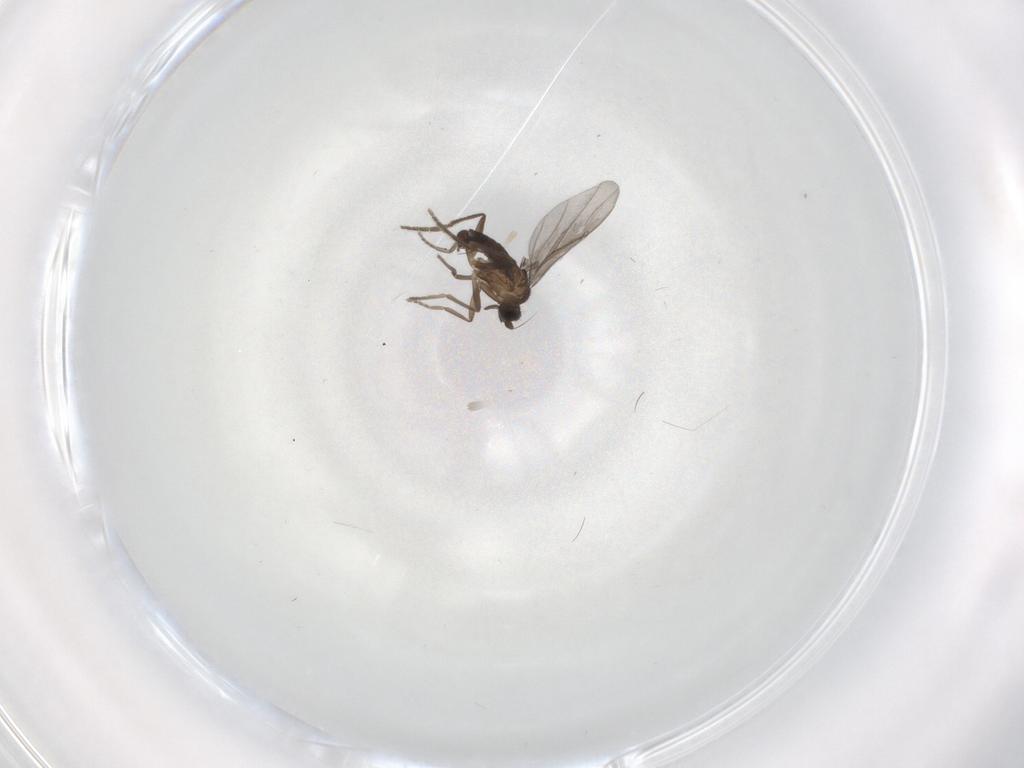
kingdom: Animalia
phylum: Arthropoda
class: Insecta
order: Diptera
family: Phoridae
